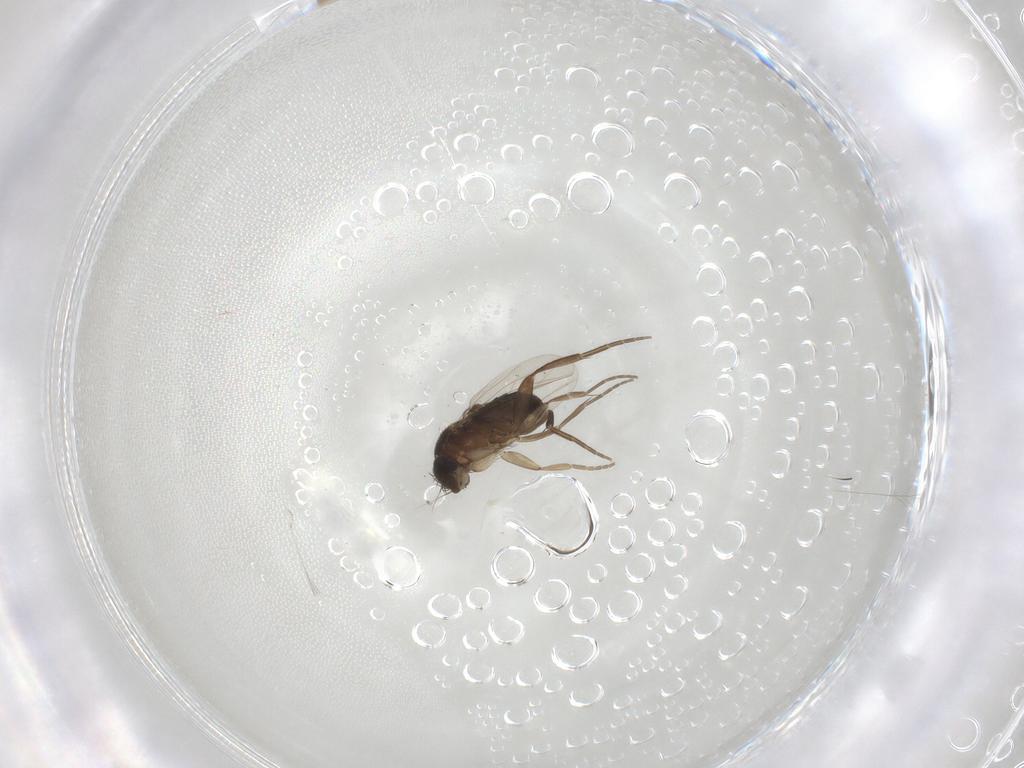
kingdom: Animalia
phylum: Arthropoda
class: Insecta
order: Diptera
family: Phoridae
